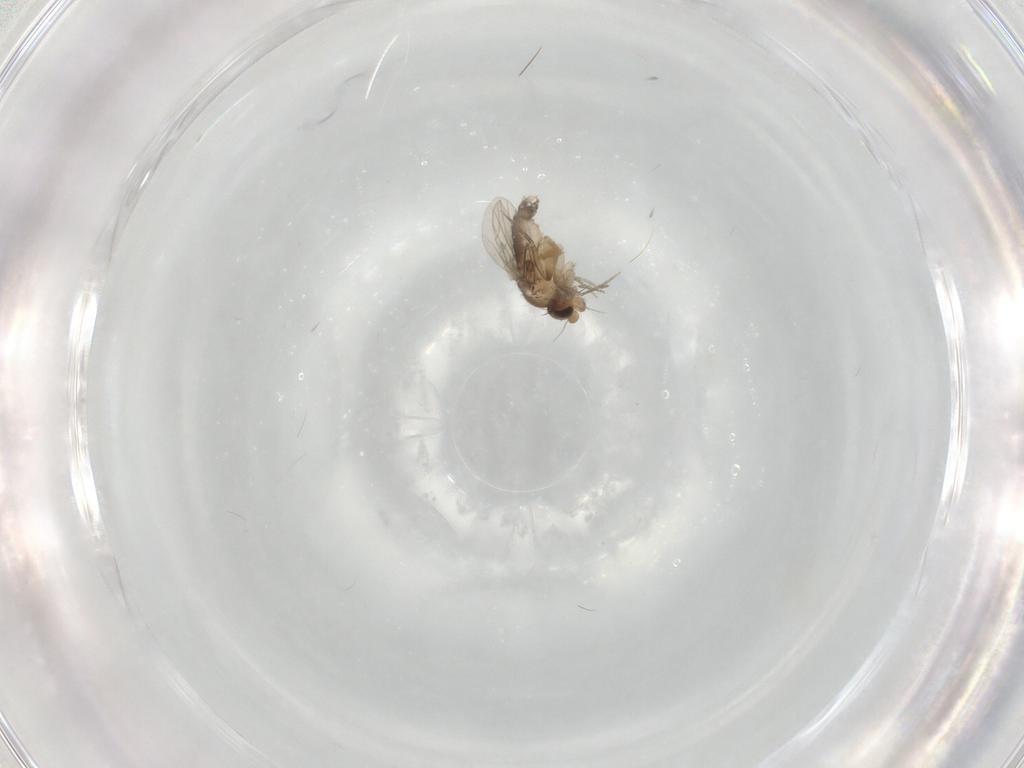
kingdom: Animalia
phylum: Arthropoda
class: Insecta
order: Diptera
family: Phoridae
